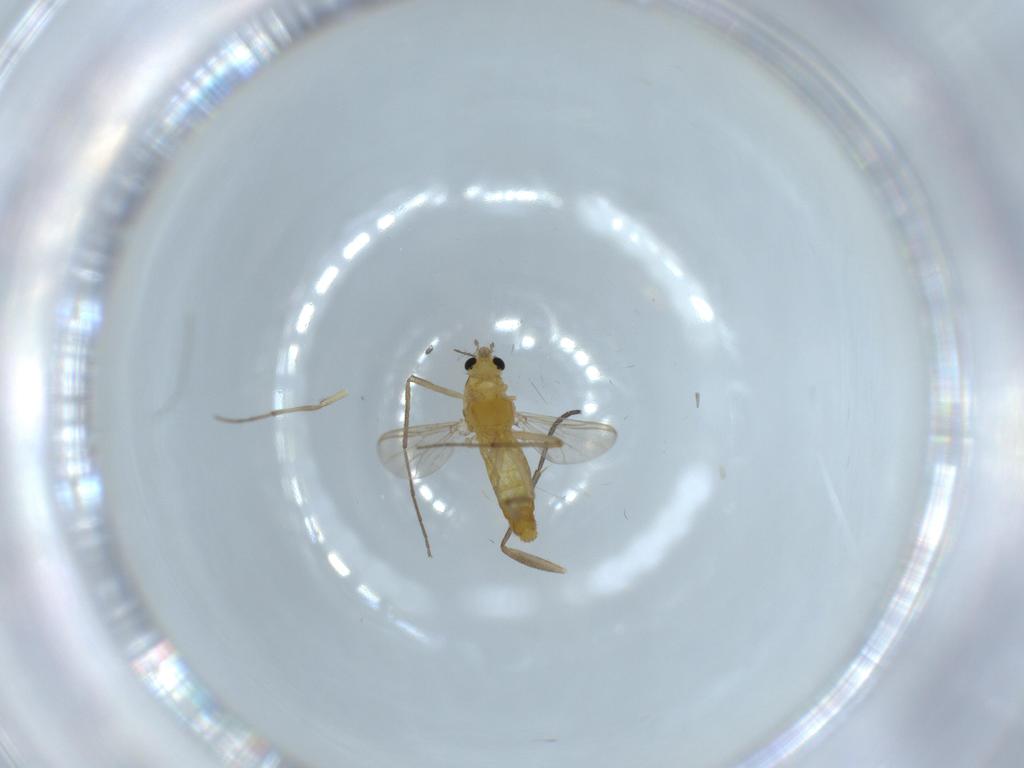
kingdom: Animalia
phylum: Arthropoda
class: Insecta
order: Diptera
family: Chironomidae
